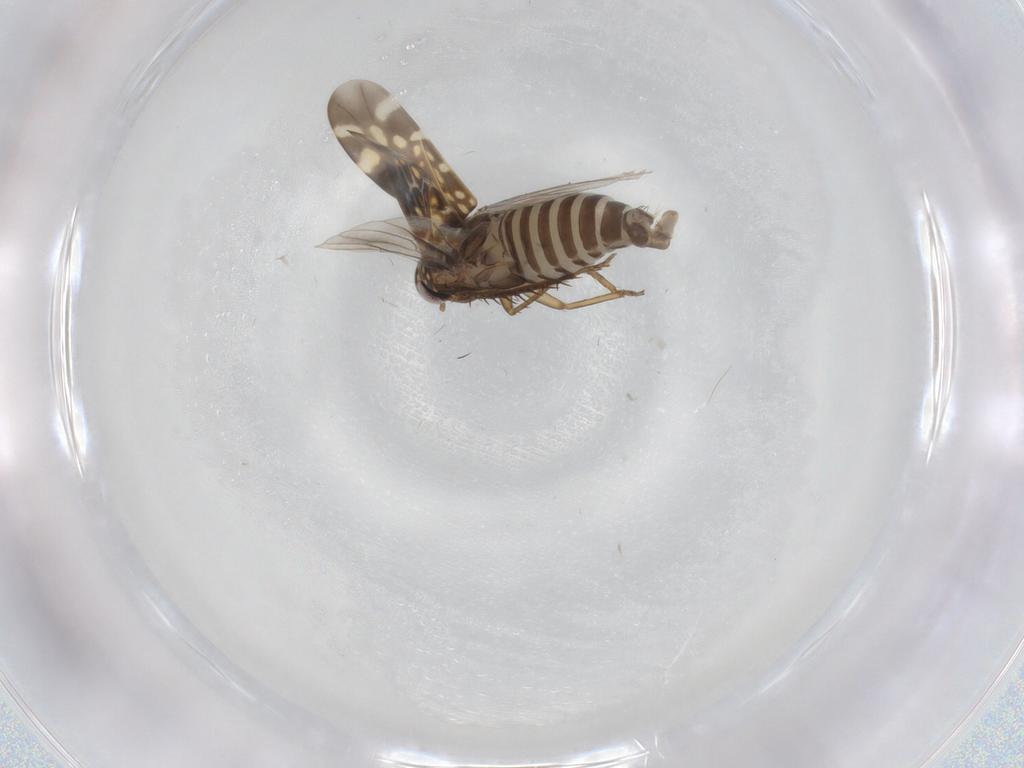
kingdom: Animalia
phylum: Arthropoda
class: Insecta
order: Hemiptera
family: Cicadellidae
